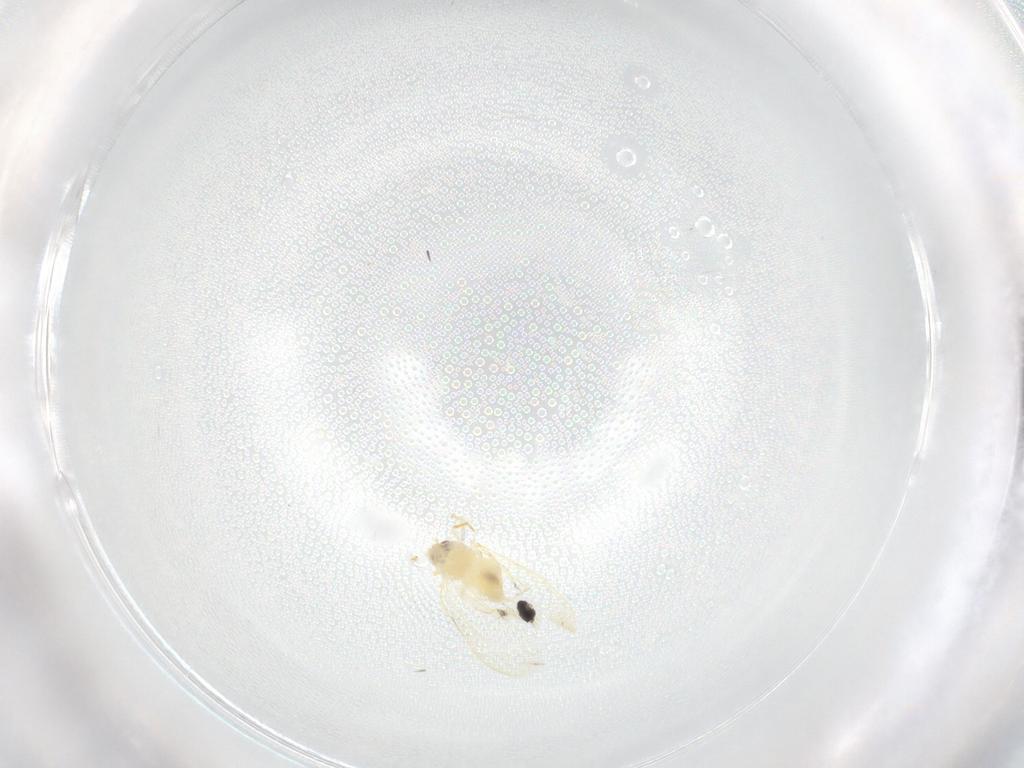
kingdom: Animalia
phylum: Arthropoda
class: Insecta
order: Hemiptera
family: Aleyrodidae
